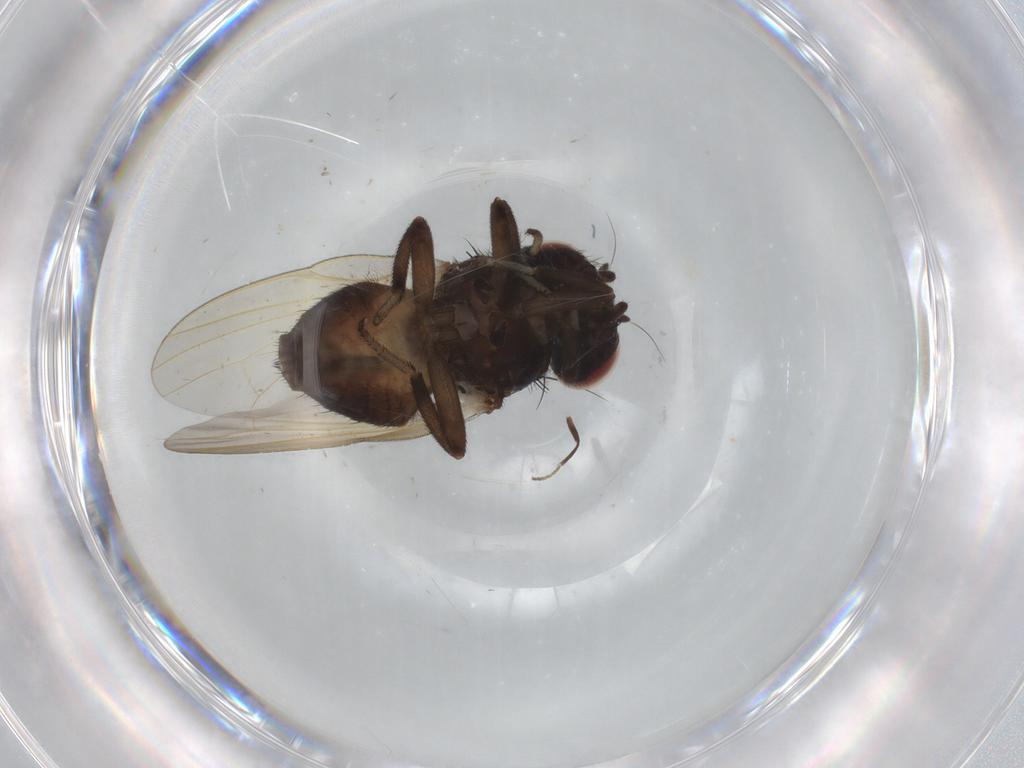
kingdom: Animalia
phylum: Arthropoda
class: Insecta
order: Diptera
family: Lonchaeidae
